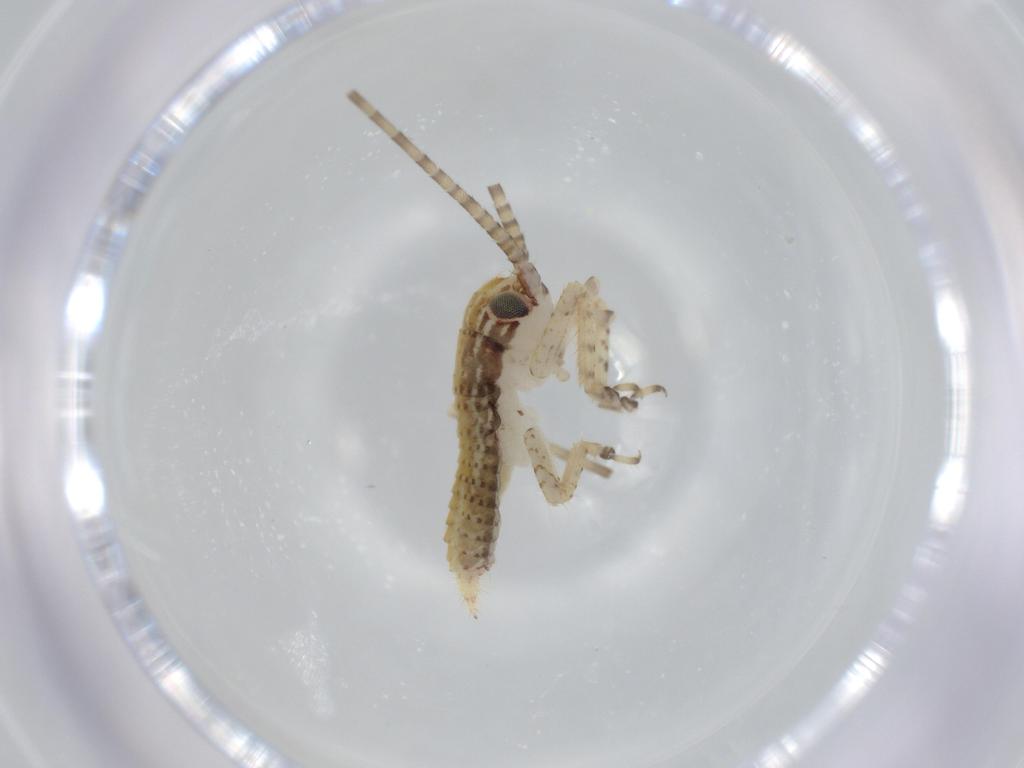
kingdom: Animalia
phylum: Arthropoda
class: Insecta
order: Orthoptera
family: Gryllidae
